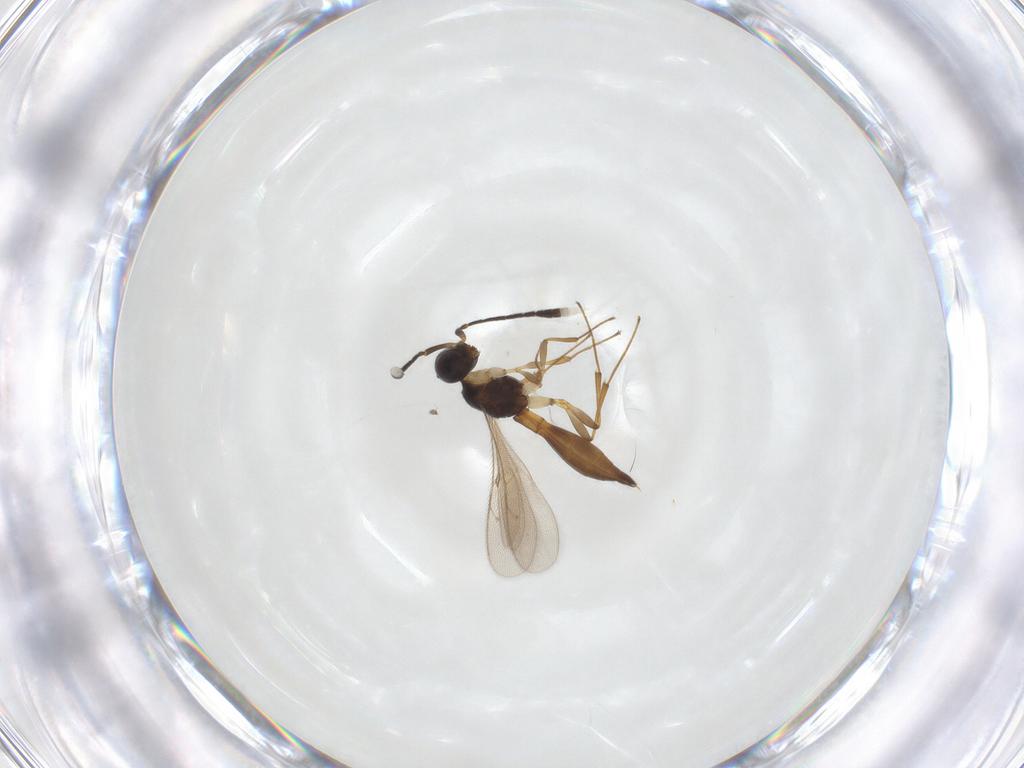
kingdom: Animalia
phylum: Arthropoda
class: Insecta
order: Hymenoptera
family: Scelionidae
